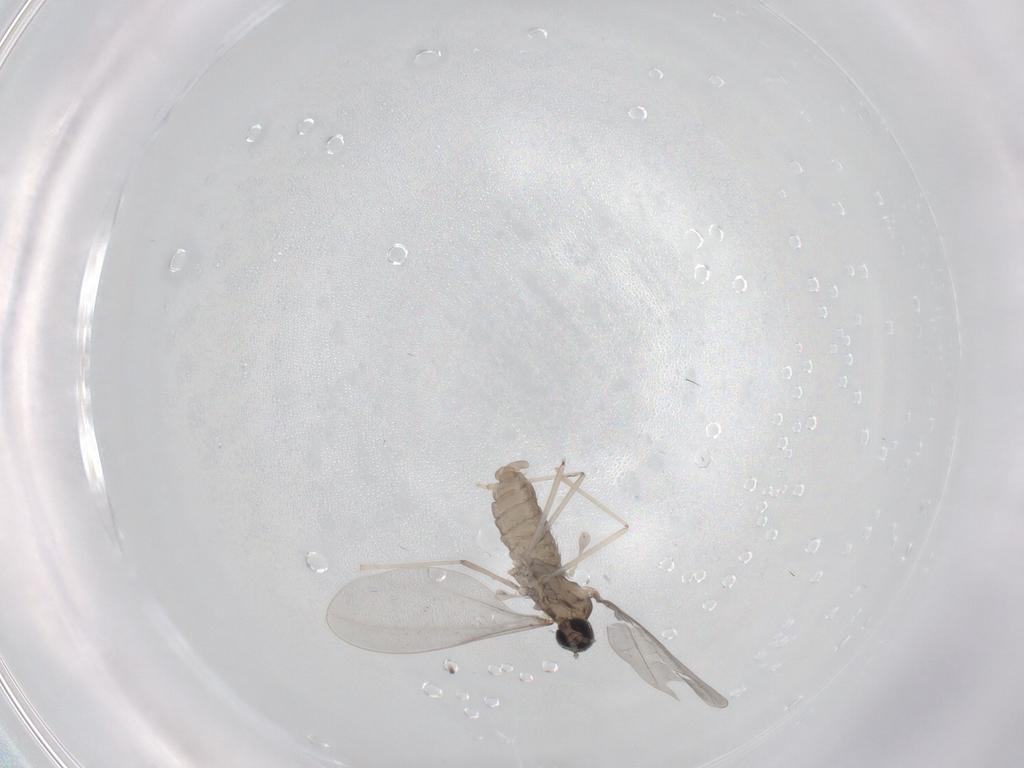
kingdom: Animalia
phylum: Arthropoda
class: Insecta
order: Diptera
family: Cecidomyiidae
